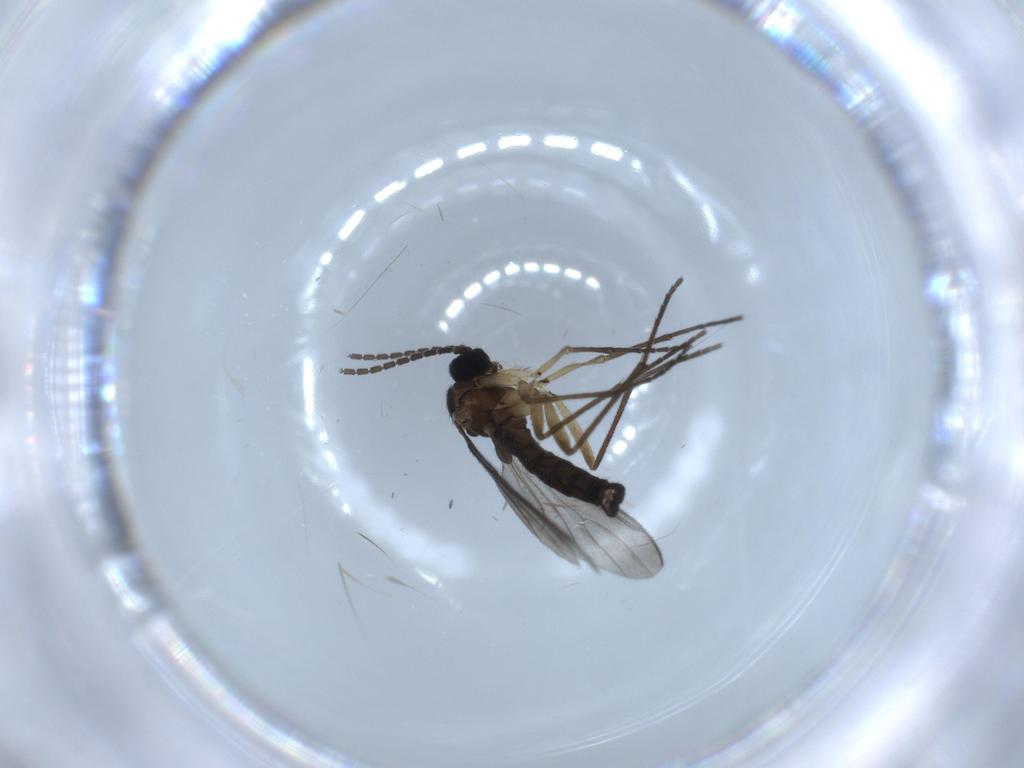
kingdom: Animalia
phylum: Arthropoda
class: Insecta
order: Diptera
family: Sciaridae
